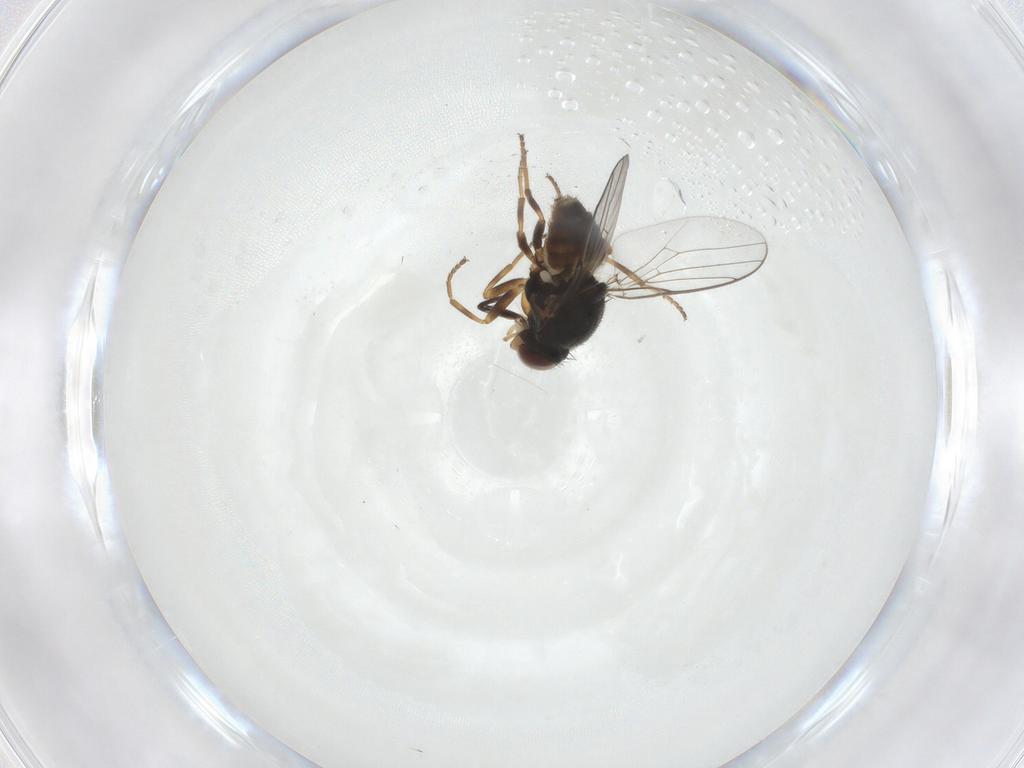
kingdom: Animalia
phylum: Arthropoda
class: Insecta
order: Diptera
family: Chloropidae
